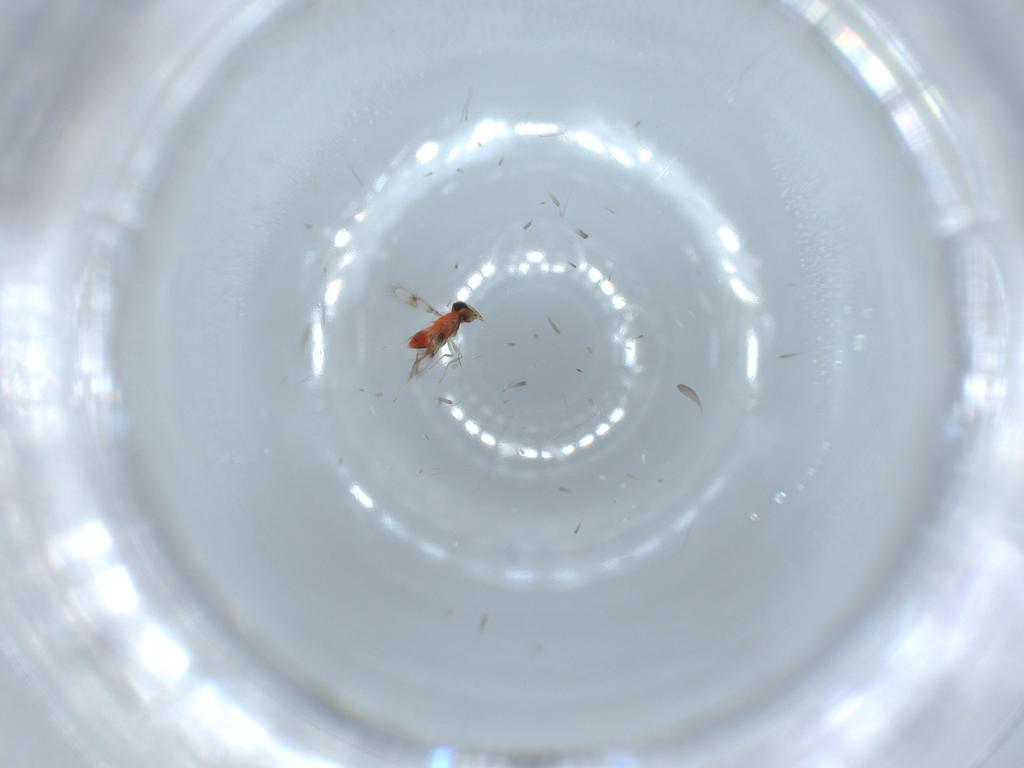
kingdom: Animalia
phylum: Arthropoda
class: Insecta
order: Hymenoptera
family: Trichogrammatidae
